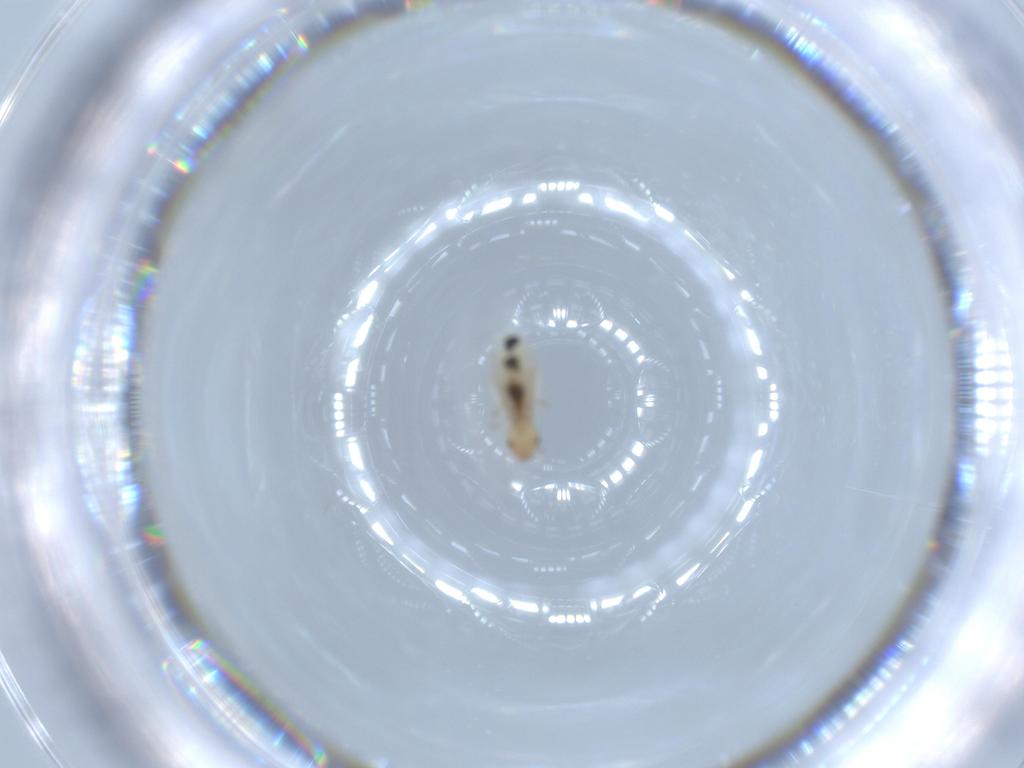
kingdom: Animalia
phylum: Arthropoda
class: Insecta
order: Psocodea
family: Liposcelididae
